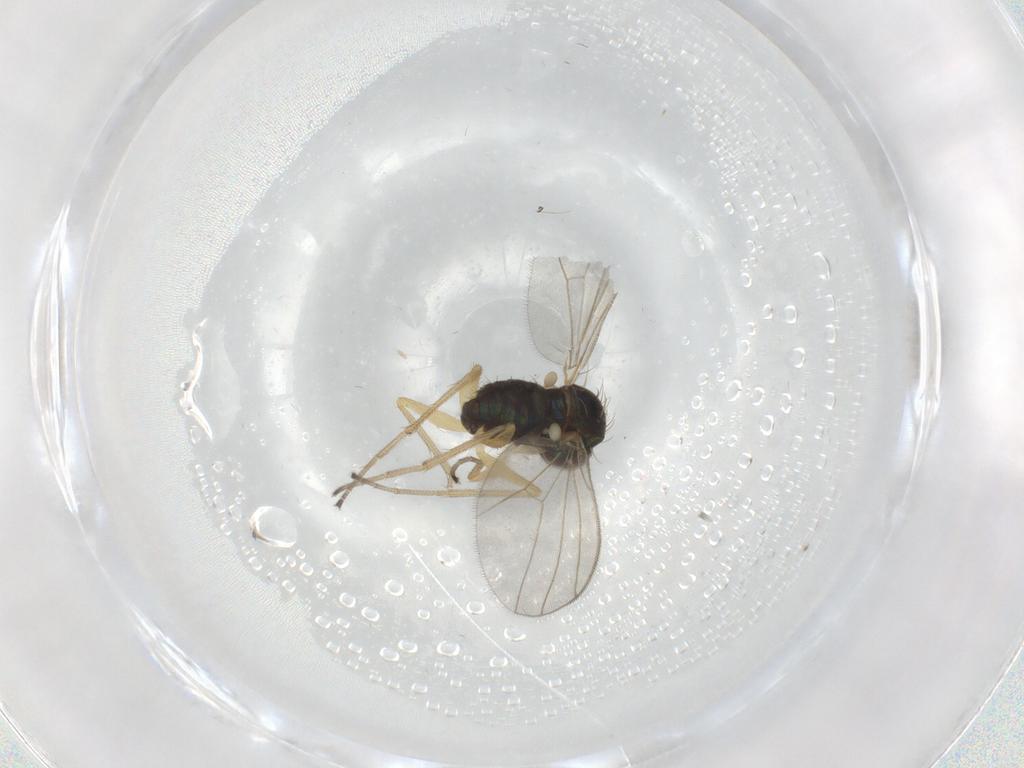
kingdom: Animalia
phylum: Arthropoda
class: Insecta
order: Diptera
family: Dolichopodidae
